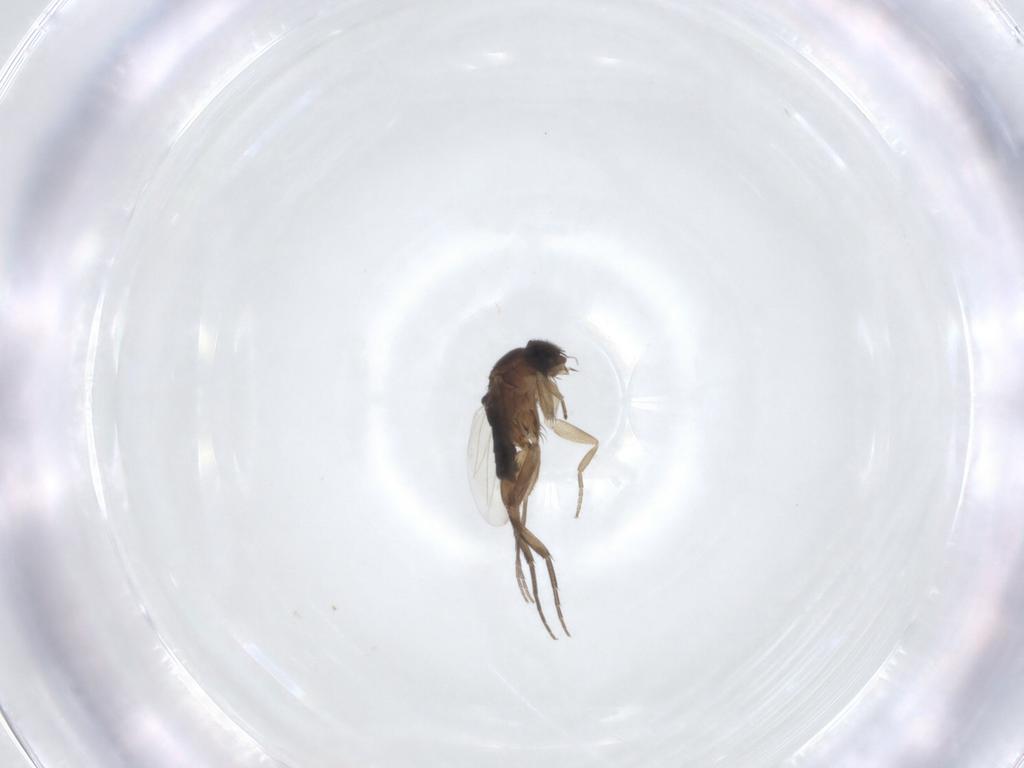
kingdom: Animalia
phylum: Arthropoda
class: Insecta
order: Diptera
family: Phoridae
